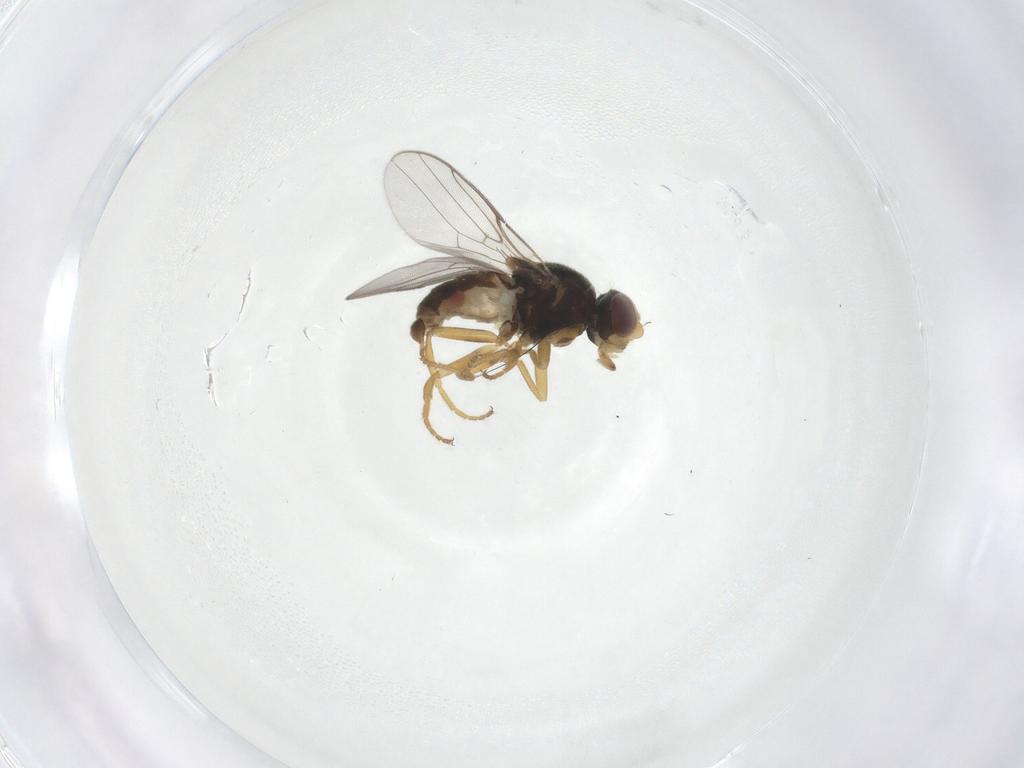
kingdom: Animalia
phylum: Arthropoda
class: Insecta
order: Diptera
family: Chloropidae
